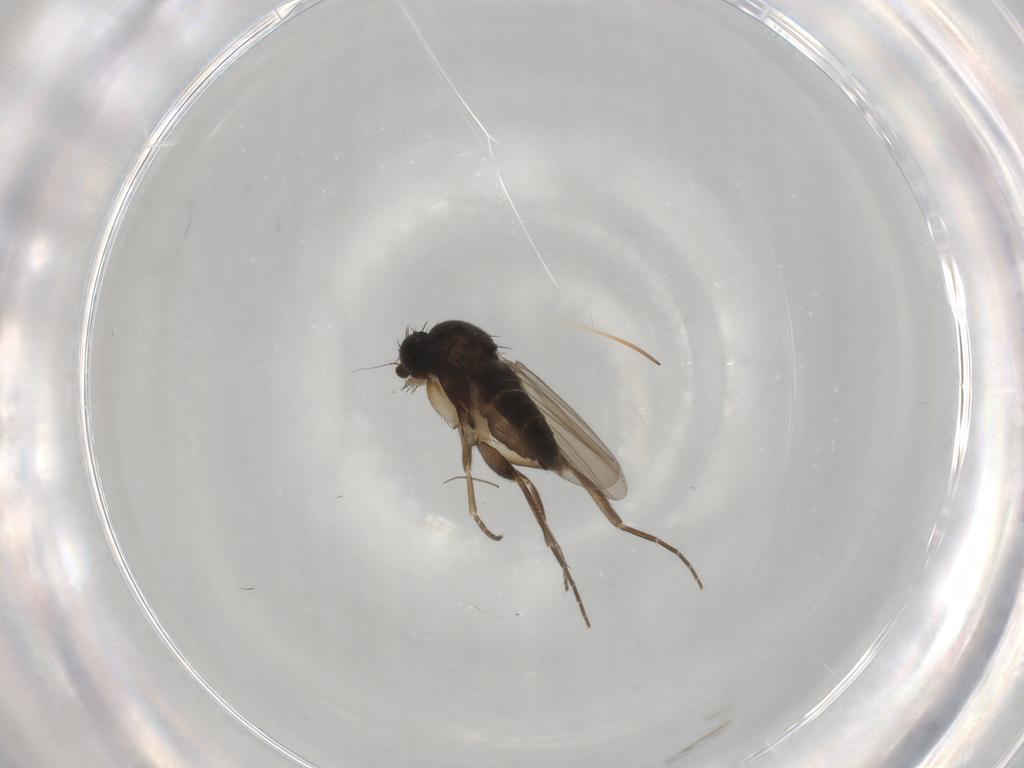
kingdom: Animalia
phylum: Arthropoda
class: Insecta
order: Diptera
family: Phoridae
